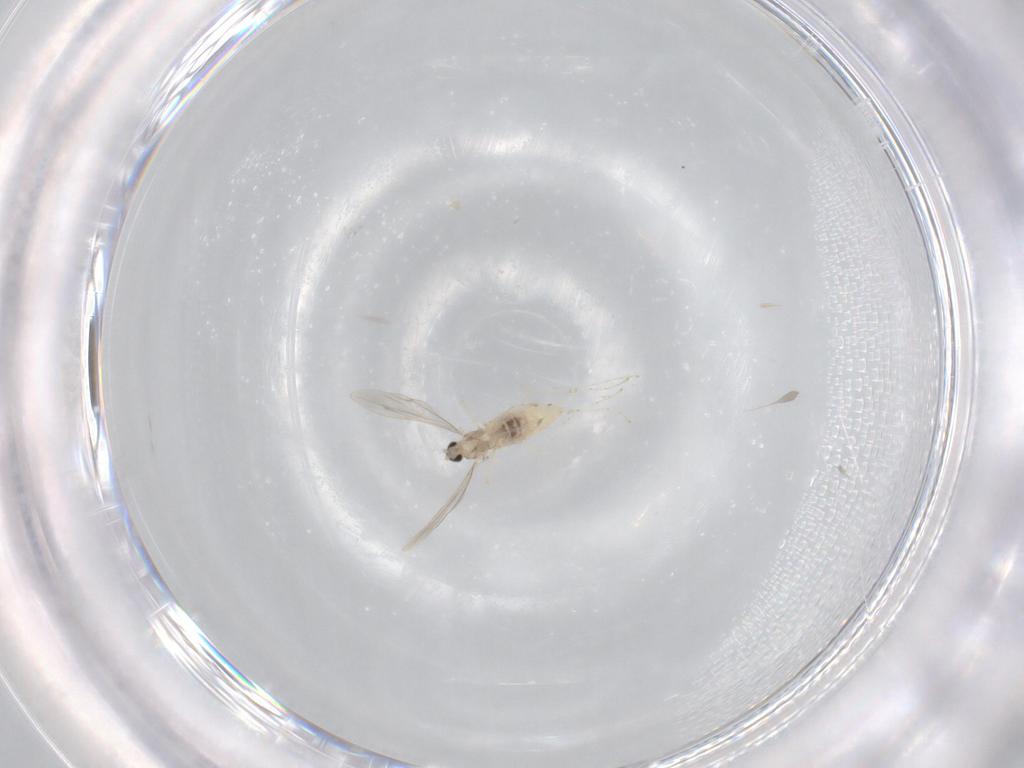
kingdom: Animalia
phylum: Arthropoda
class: Insecta
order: Diptera
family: Cecidomyiidae
